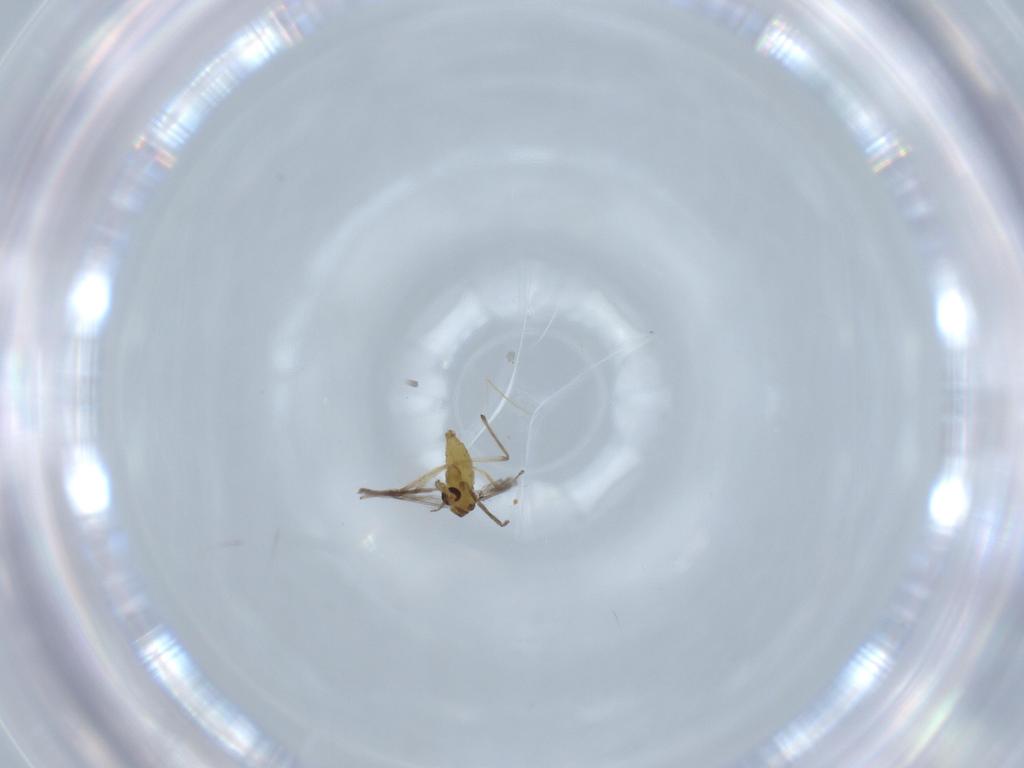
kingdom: Animalia
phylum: Arthropoda
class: Insecta
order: Diptera
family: Chironomidae
